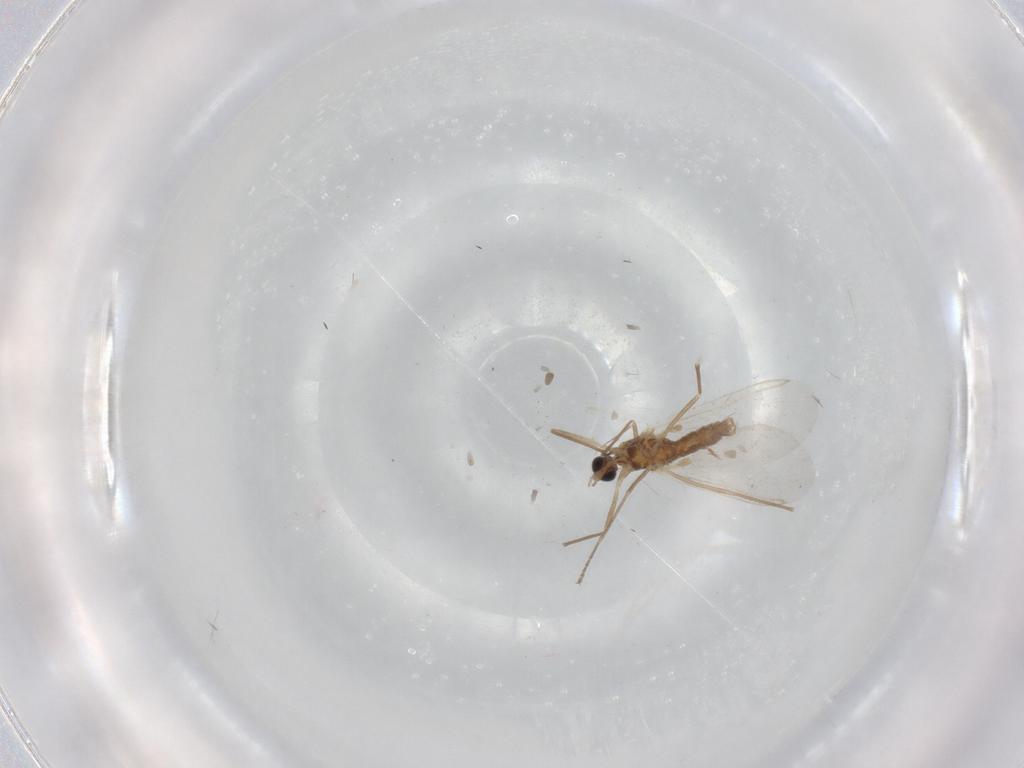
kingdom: Animalia
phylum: Arthropoda
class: Insecta
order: Diptera
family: Cecidomyiidae
